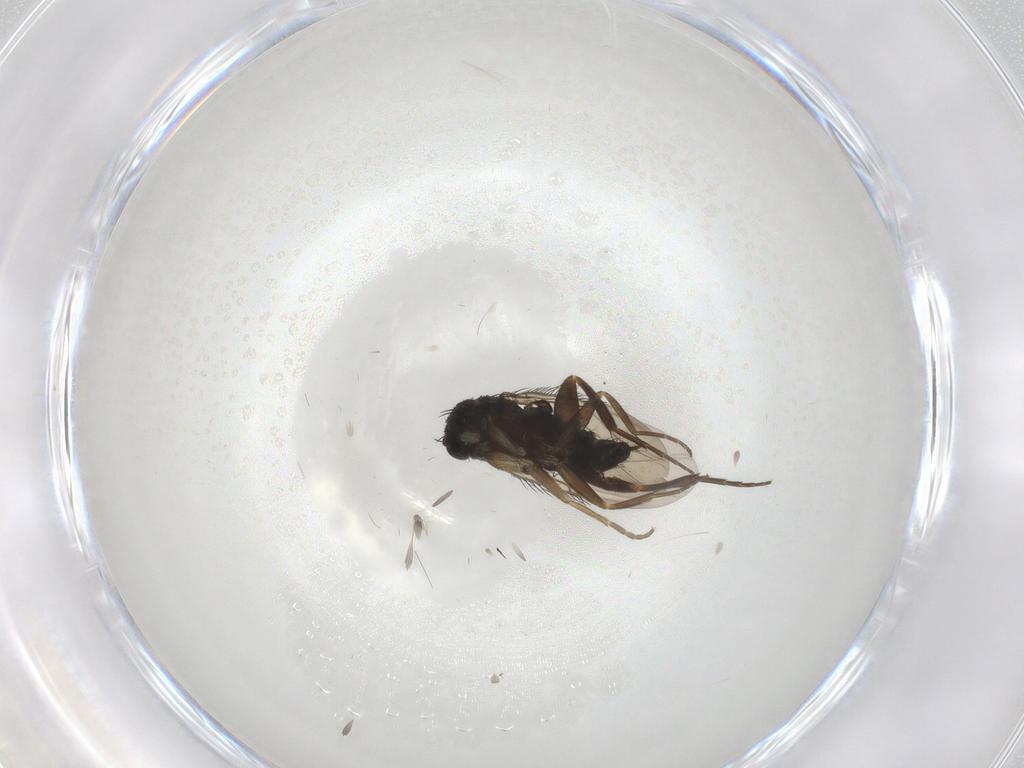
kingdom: Animalia
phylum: Arthropoda
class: Insecta
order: Diptera
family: Phoridae
